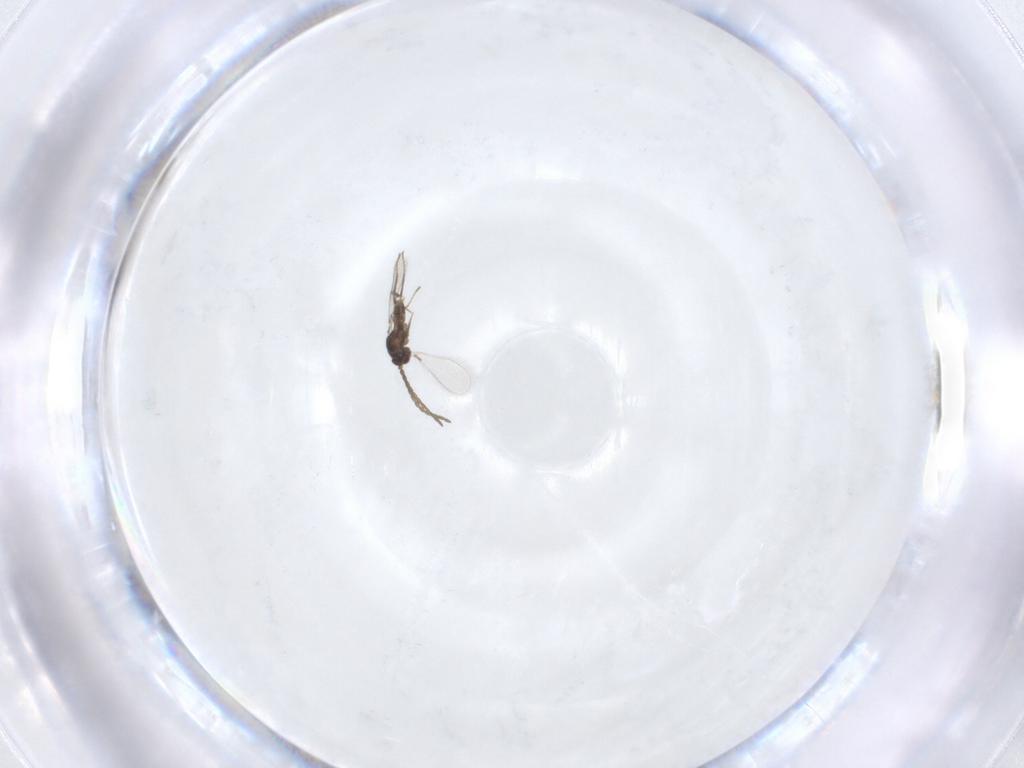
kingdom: Animalia
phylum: Arthropoda
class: Insecta
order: Hymenoptera
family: Mymaridae
